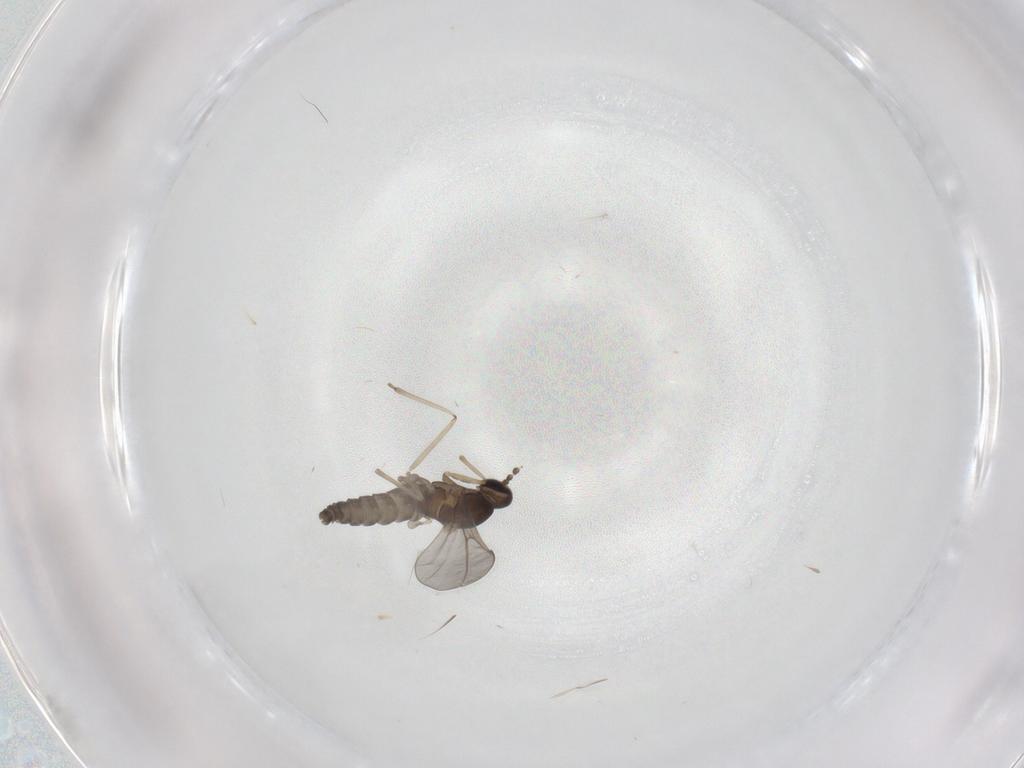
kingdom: Animalia
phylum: Arthropoda
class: Insecta
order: Diptera
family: Cecidomyiidae
